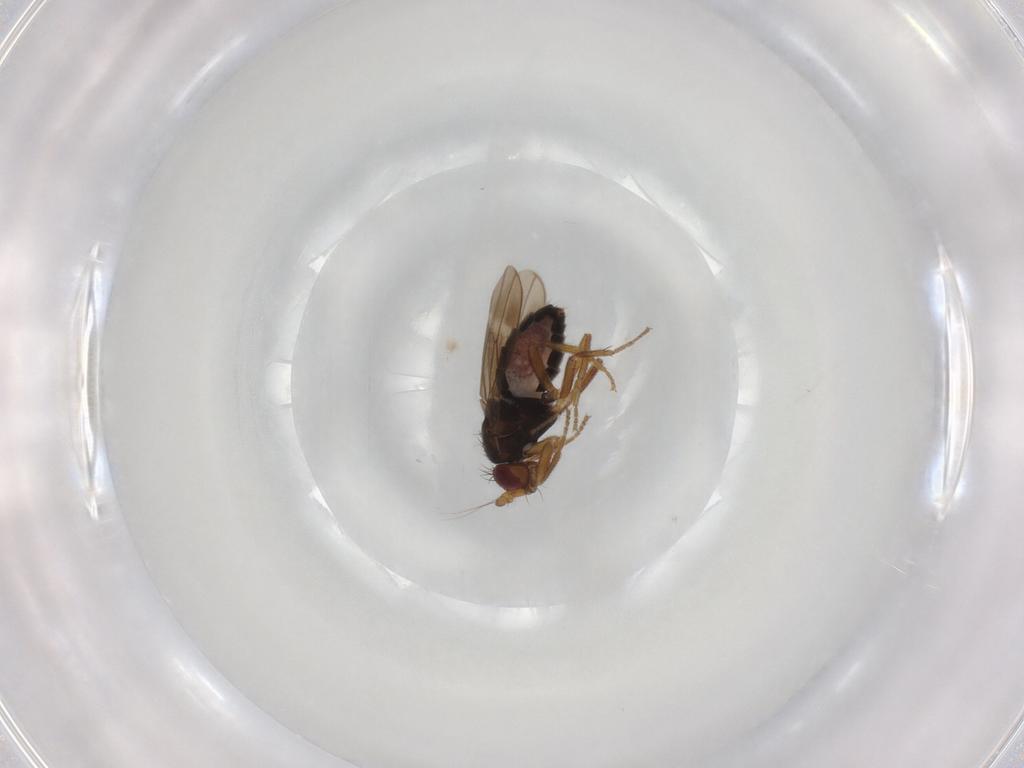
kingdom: Animalia
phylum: Arthropoda
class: Insecta
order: Diptera
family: Sphaeroceridae
